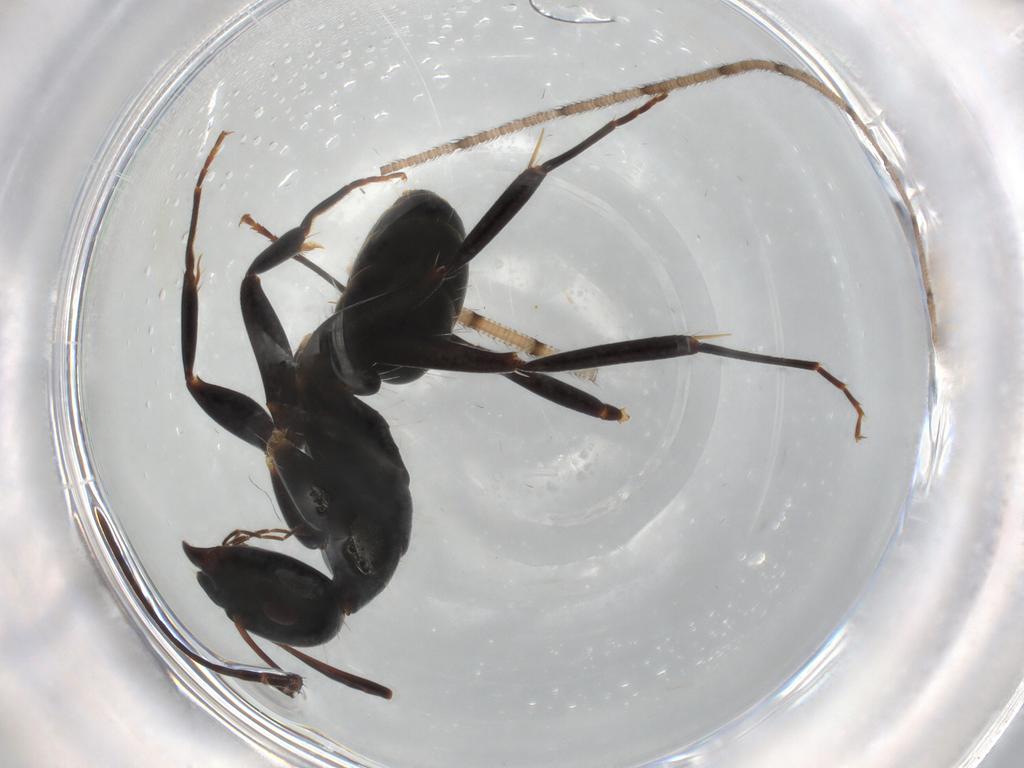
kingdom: Animalia
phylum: Arthropoda
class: Insecta
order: Hymenoptera
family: Formicidae
